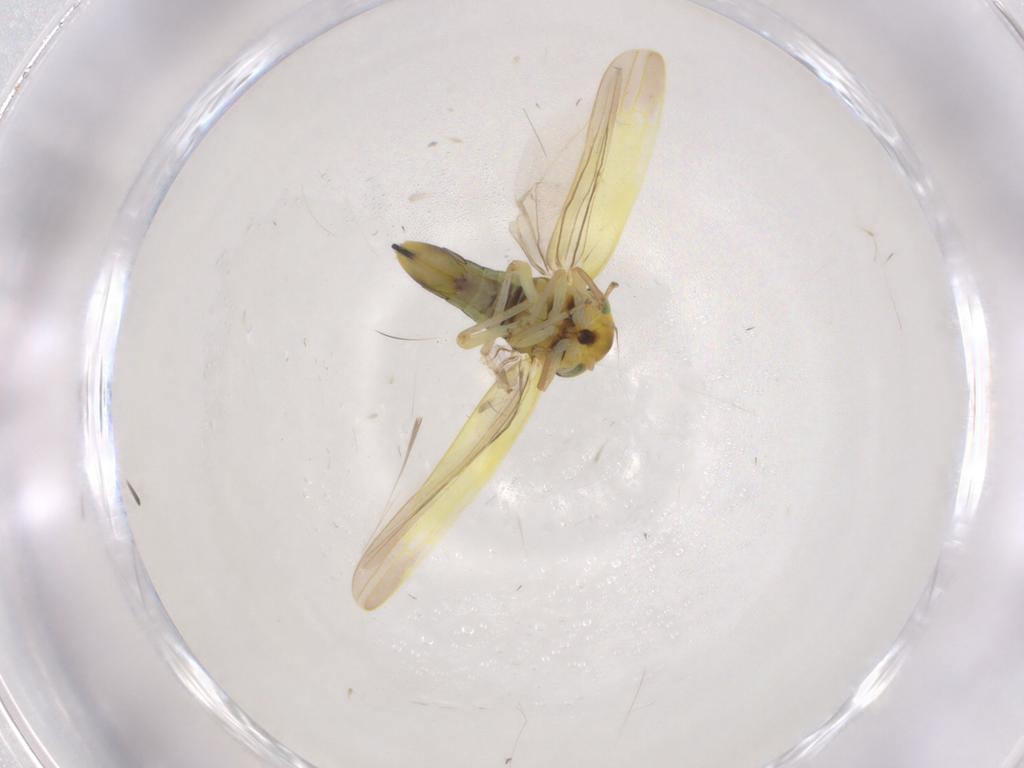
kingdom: Animalia
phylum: Arthropoda
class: Insecta
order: Hemiptera
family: Cicadellidae
